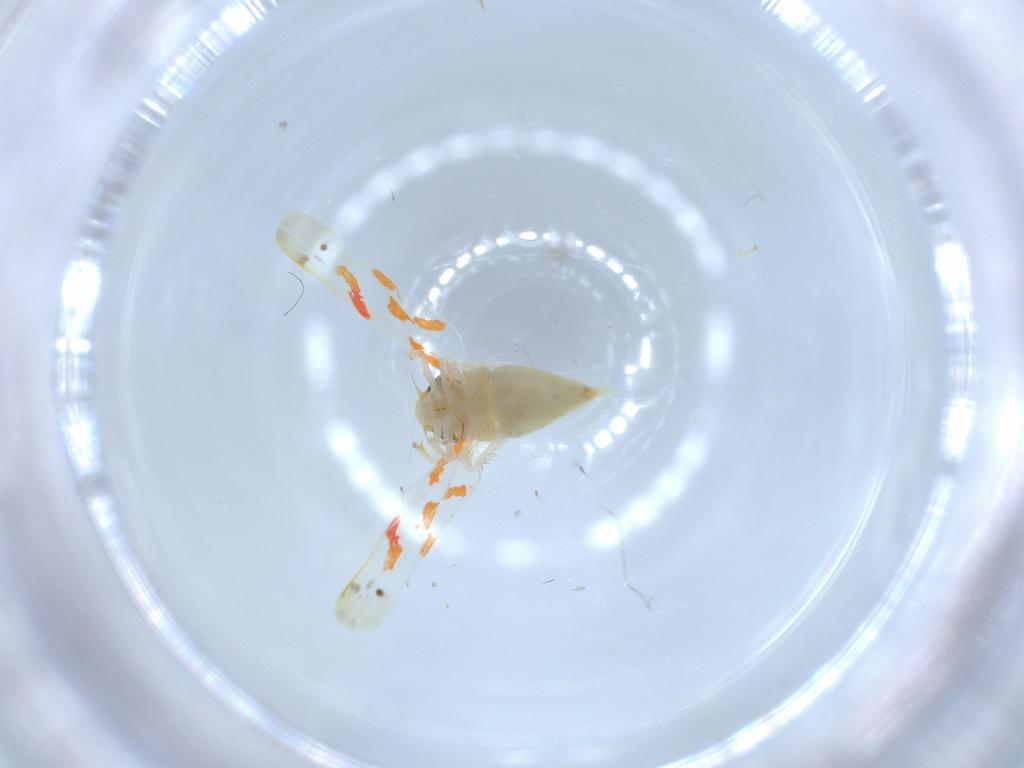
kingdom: Animalia
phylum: Arthropoda
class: Insecta
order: Hemiptera
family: Cicadellidae
